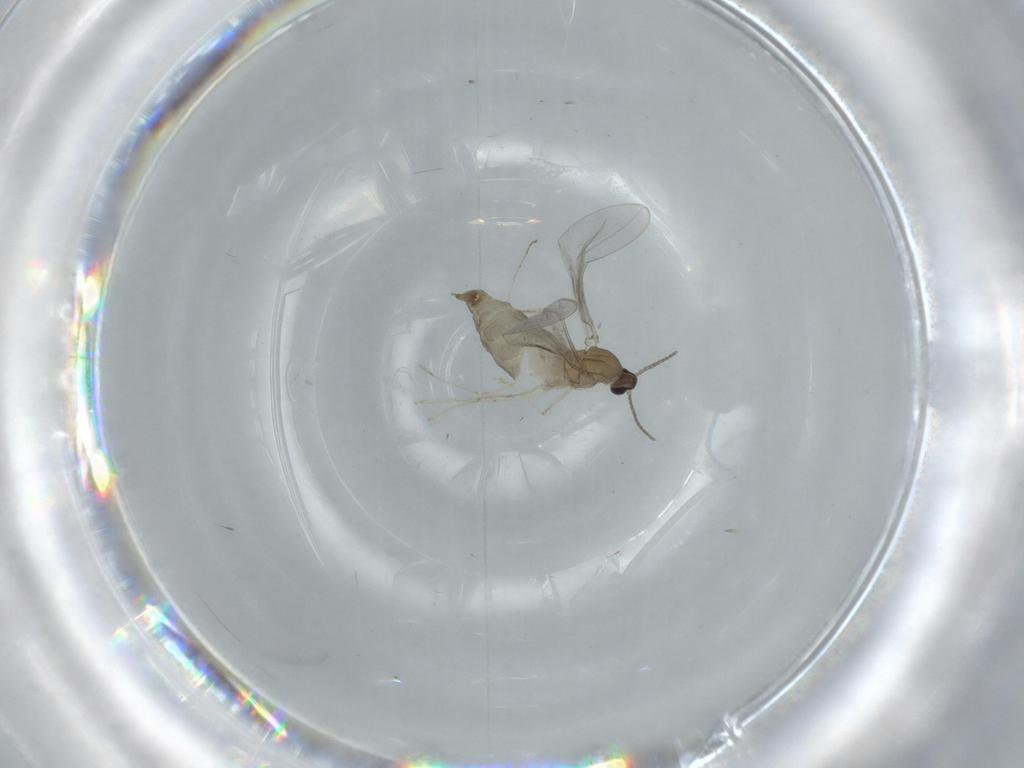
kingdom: Animalia
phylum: Arthropoda
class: Insecta
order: Diptera
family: Cecidomyiidae
